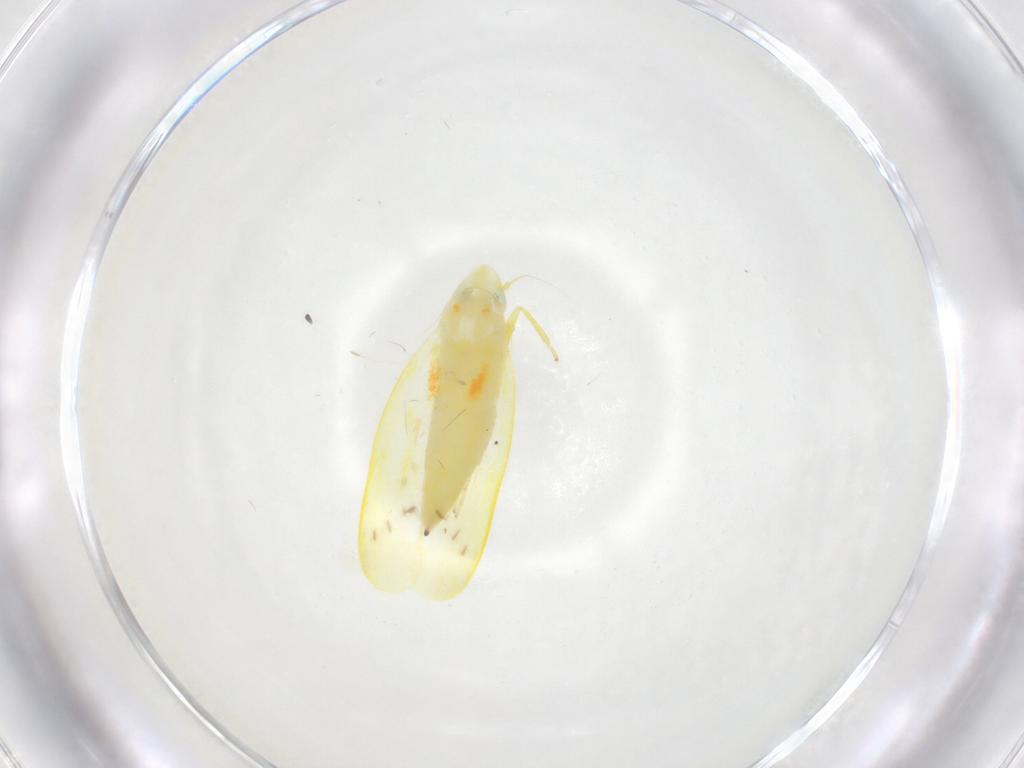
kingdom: Animalia
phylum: Arthropoda
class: Insecta
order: Hemiptera
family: Cicadellidae
